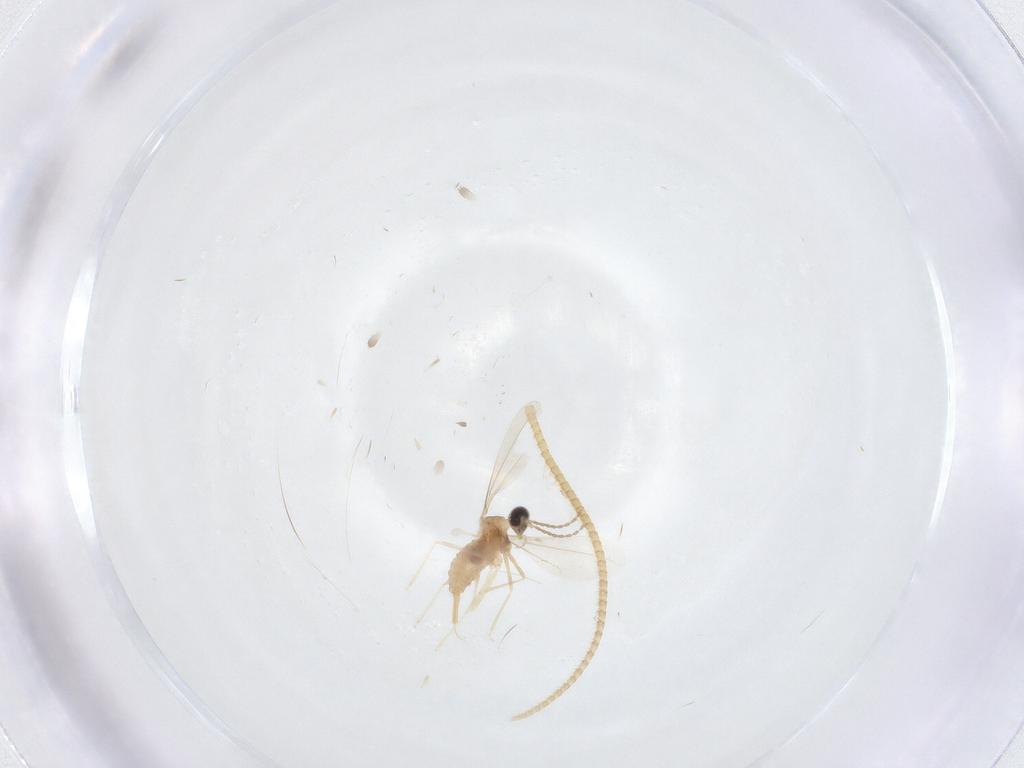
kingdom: Animalia
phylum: Arthropoda
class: Insecta
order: Diptera
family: Cecidomyiidae
